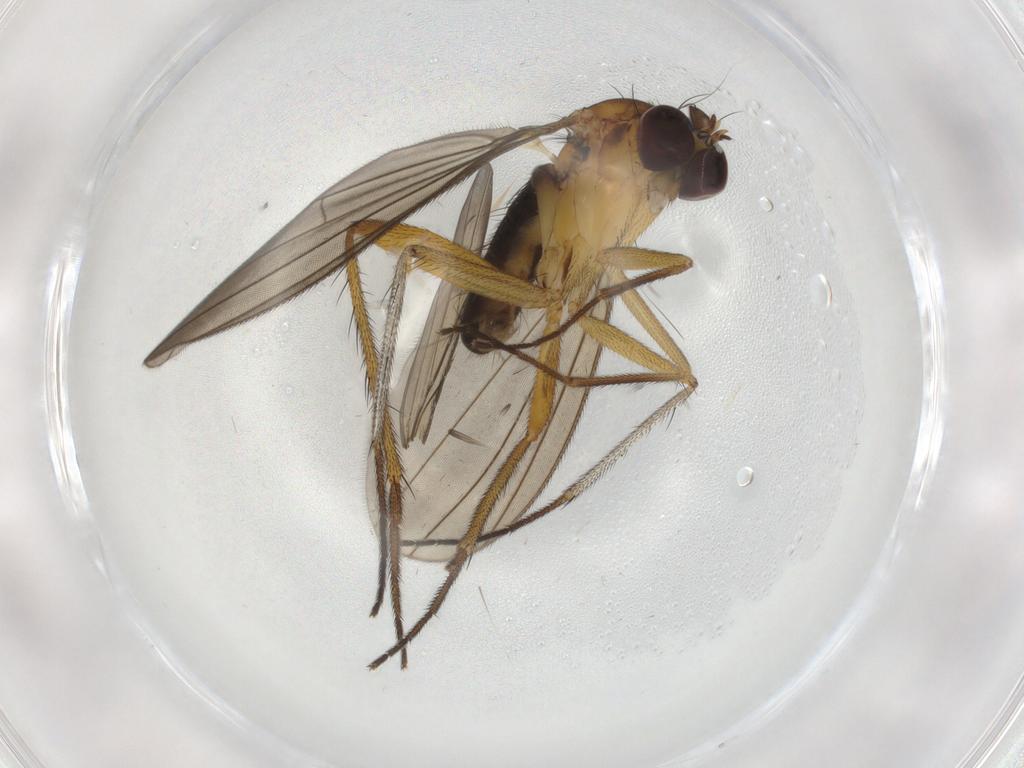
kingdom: Animalia
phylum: Arthropoda
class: Insecta
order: Diptera
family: Dolichopodidae
